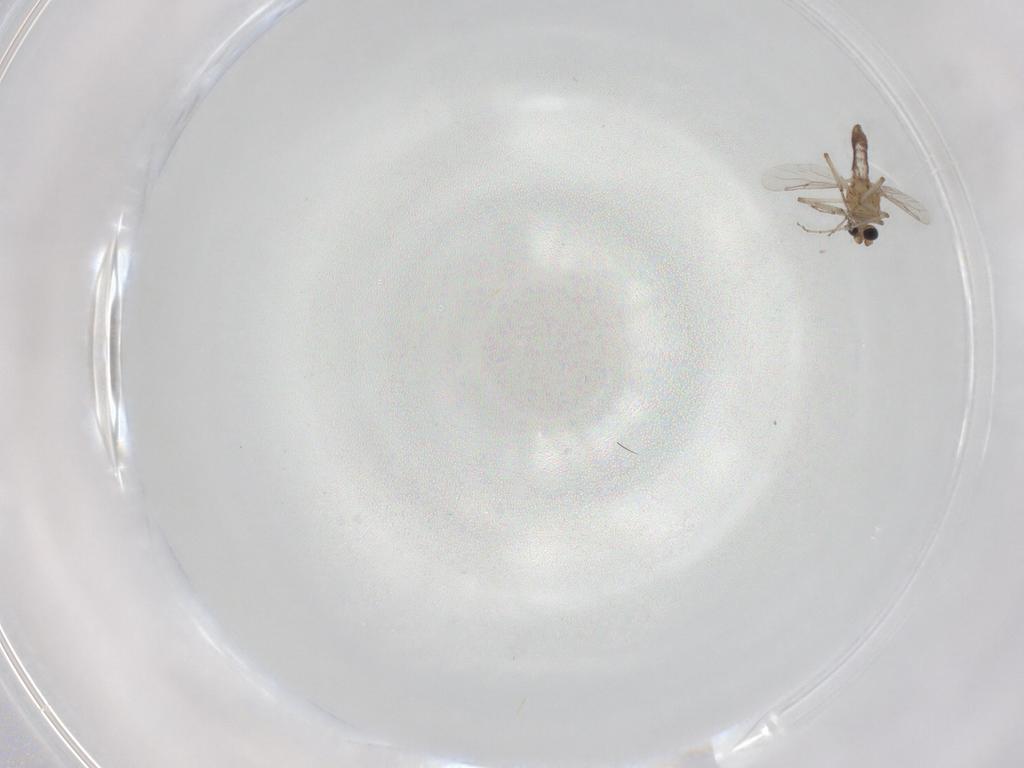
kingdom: Animalia
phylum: Arthropoda
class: Insecta
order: Diptera
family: Ceratopogonidae
